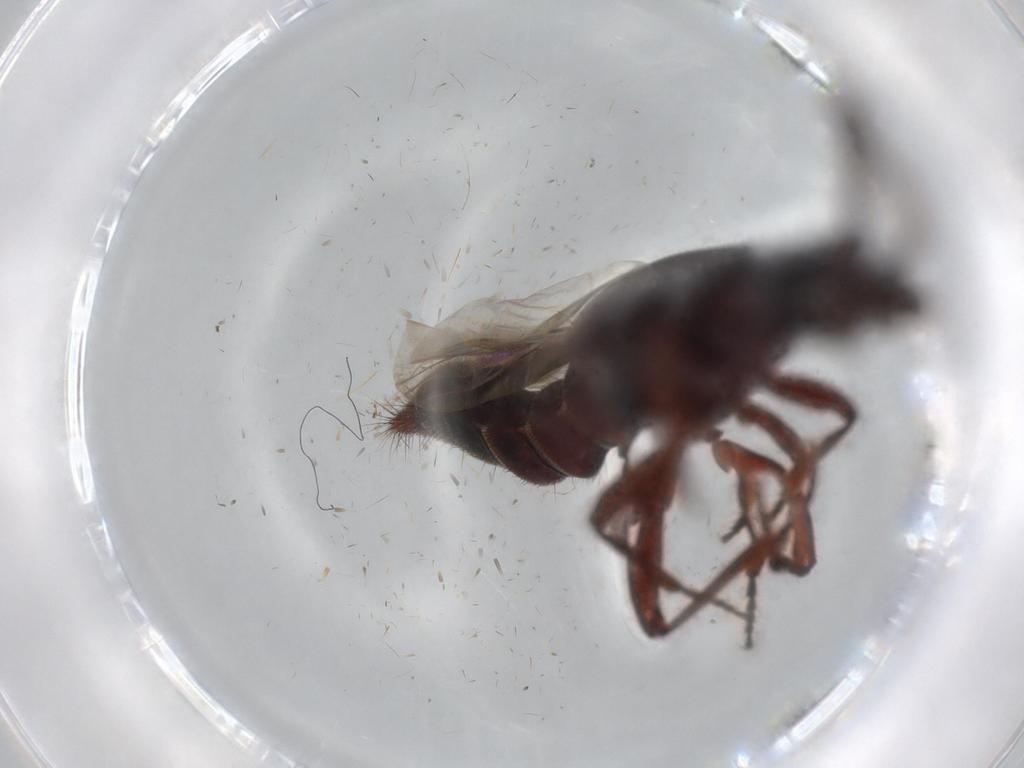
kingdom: Animalia
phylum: Arthropoda
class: Insecta
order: Coleoptera
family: Staphylinidae
